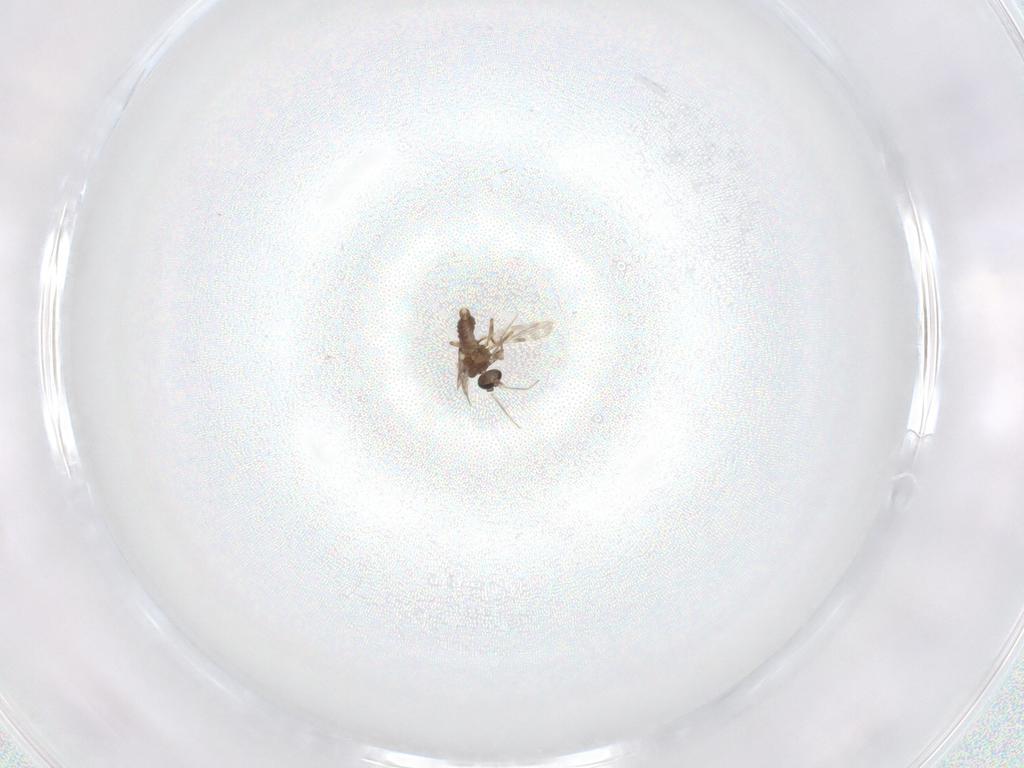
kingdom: Animalia
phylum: Arthropoda
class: Insecta
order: Diptera
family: Ceratopogonidae
